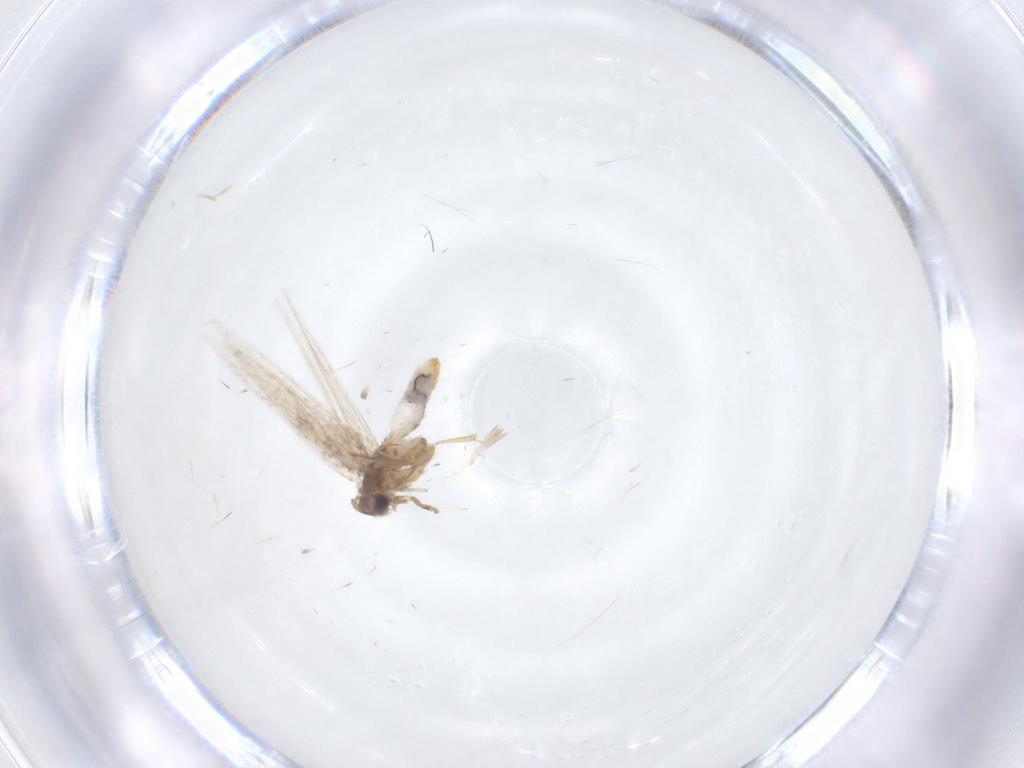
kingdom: Animalia
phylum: Arthropoda
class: Insecta
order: Lepidoptera
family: Nepticulidae
